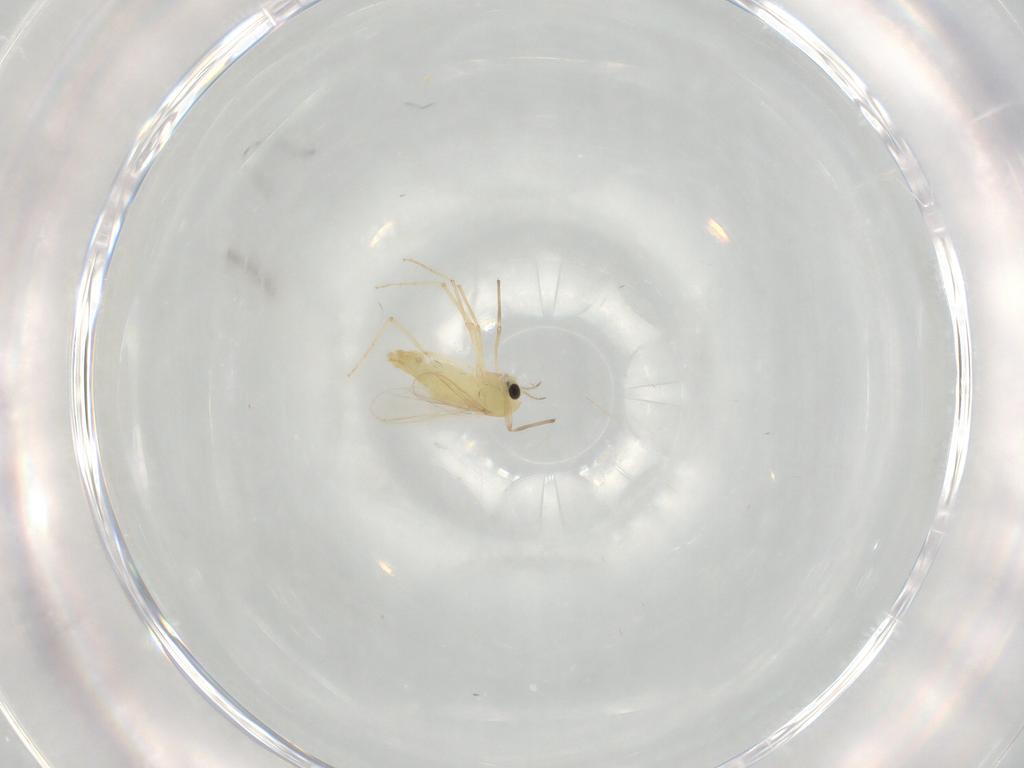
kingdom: Animalia
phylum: Arthropoda
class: Insecta
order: Diptera
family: Chironomidae
